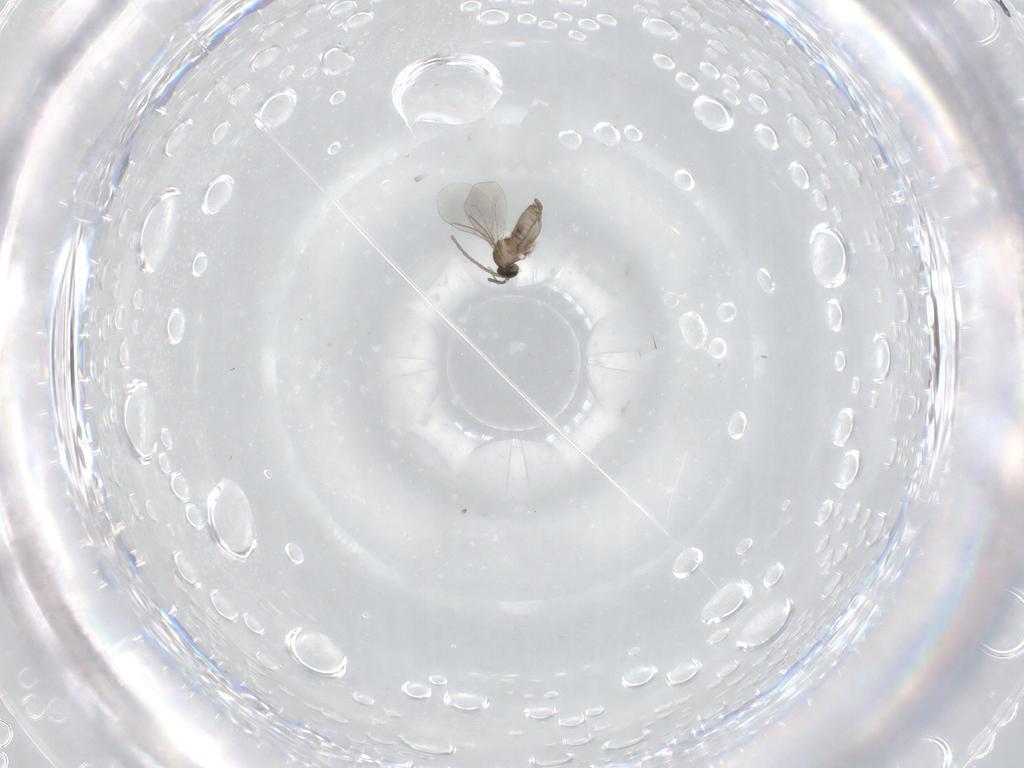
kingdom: Animalia
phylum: Arthropoda
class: Insecta
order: Diptera
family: Cecidomyiidae
